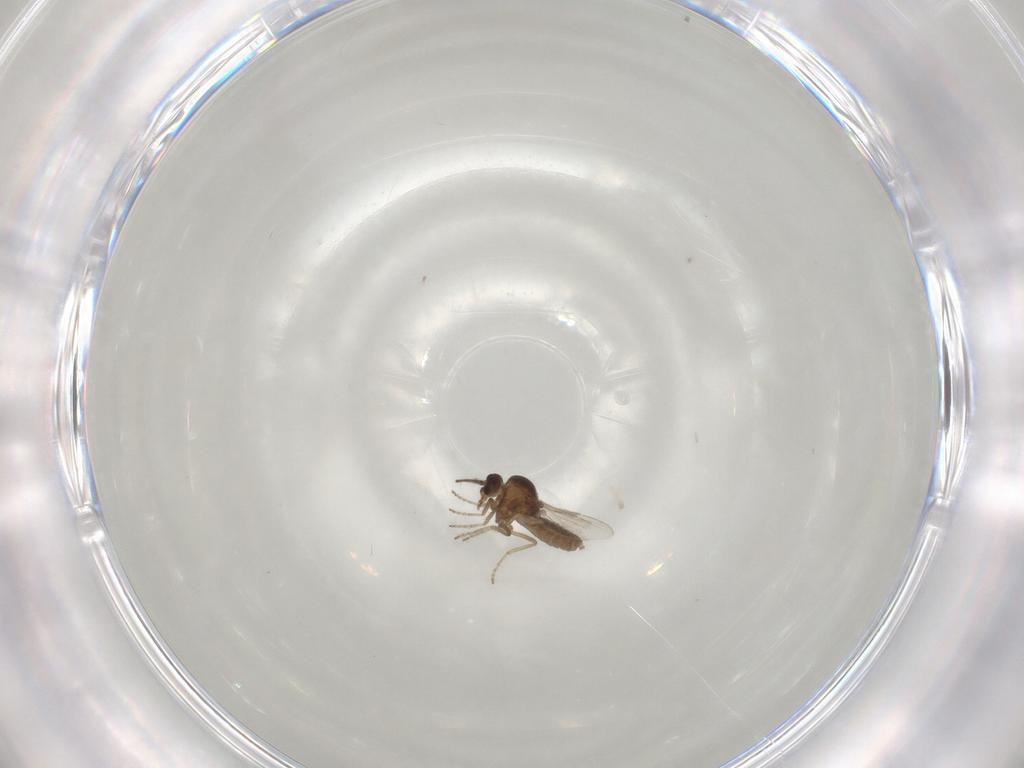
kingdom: Animalia
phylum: Arthropoda
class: Insecta
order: Diptera
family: Ceratopogonidae
